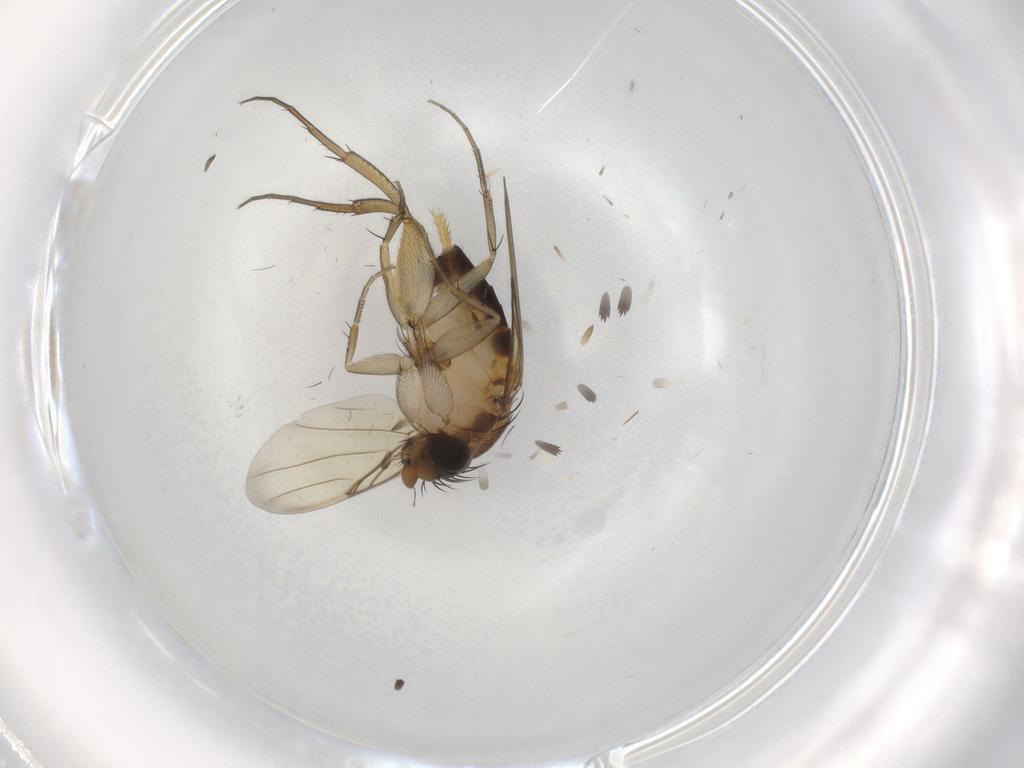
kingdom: Animalia
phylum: Arthropoda
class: Insecta
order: Diptera
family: Phoridae
